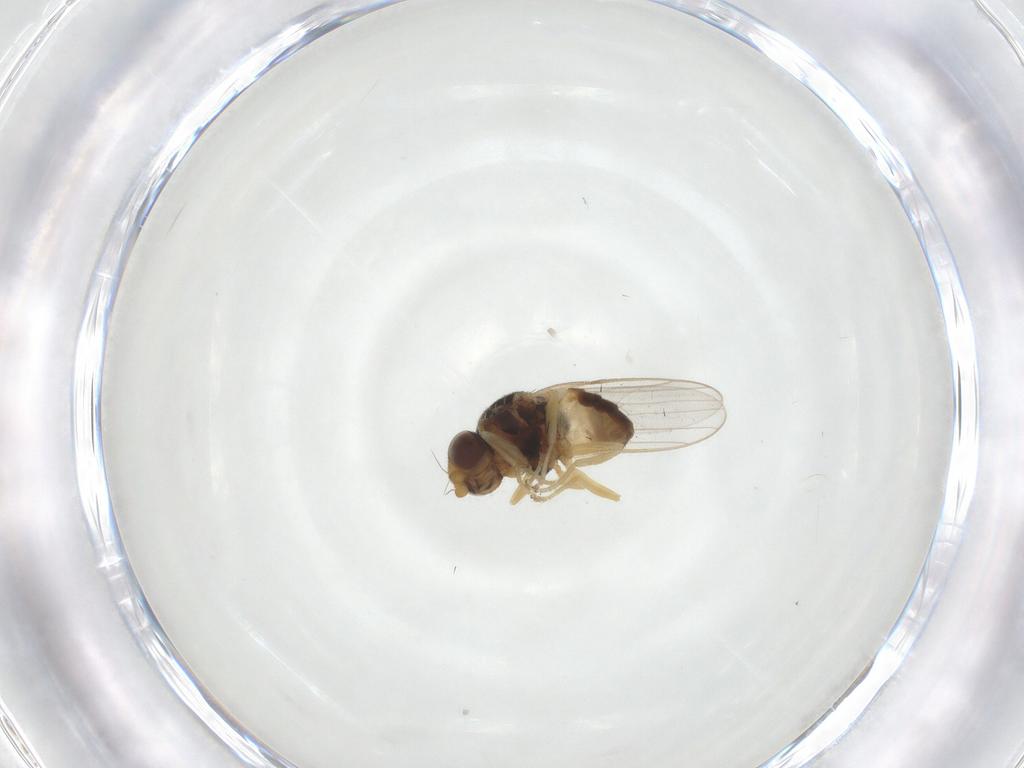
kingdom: Animalia
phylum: Arthropoda
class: Insecta
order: Diptera
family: Chloropidae
